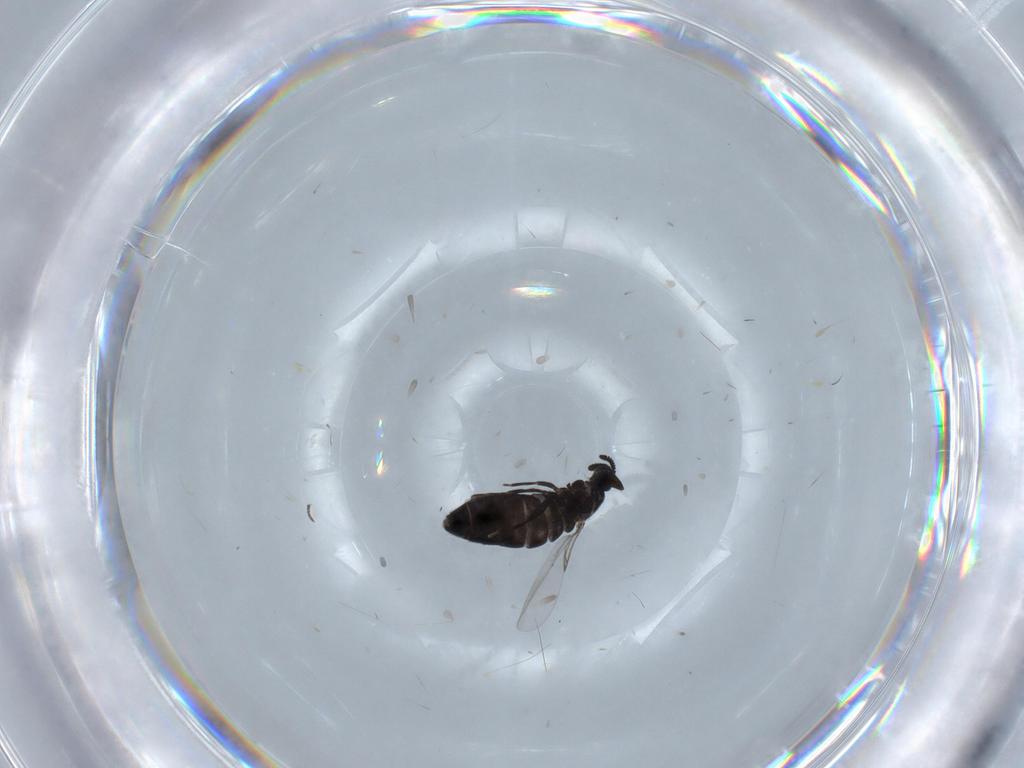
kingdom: Animalia
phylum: Arthropoda
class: Insecta
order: Diptera
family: Scatopsidae
